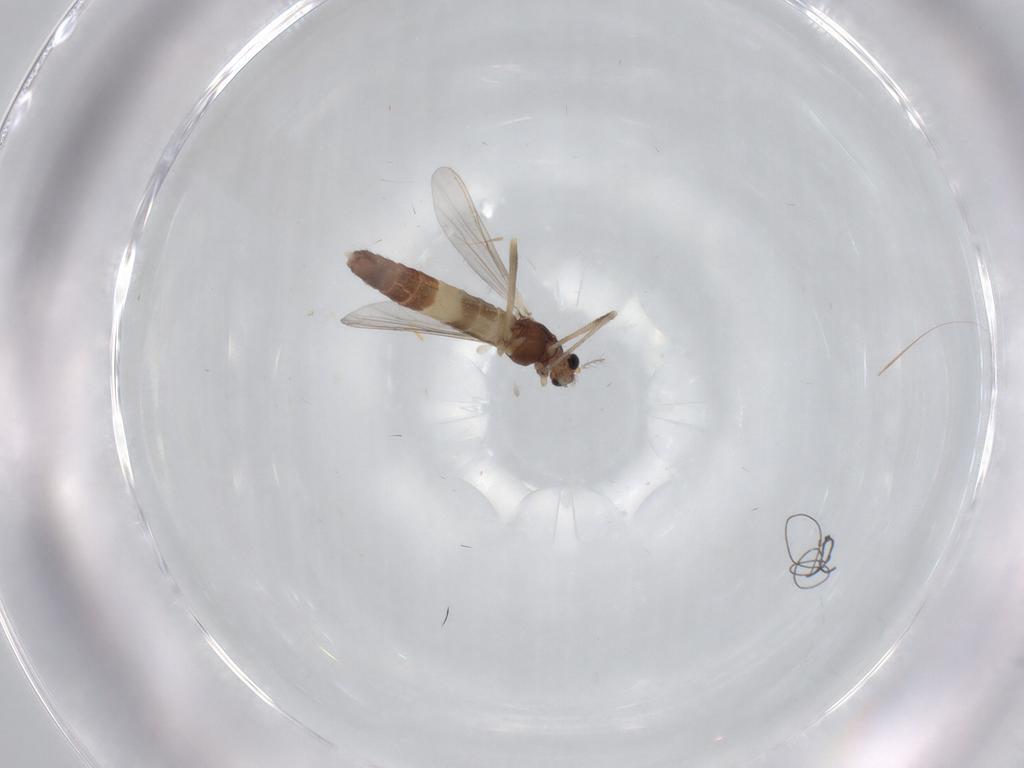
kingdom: Animalia
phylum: Arthropoda
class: Insecta
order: Diptera
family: Chironomidae
